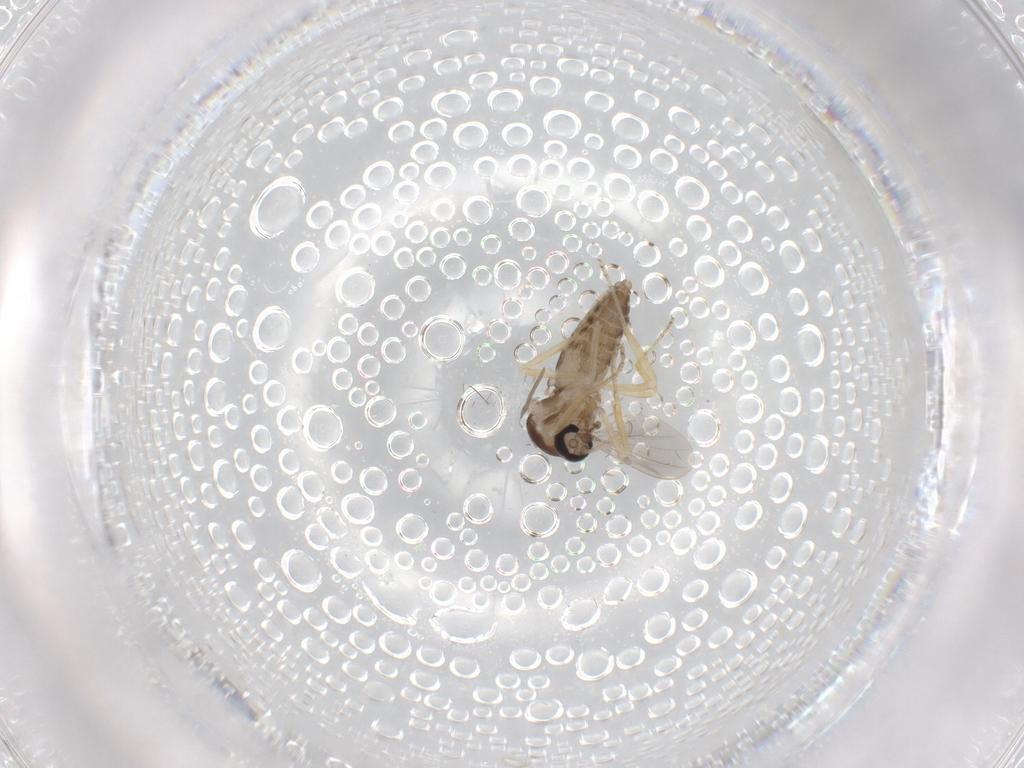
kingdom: Animalia
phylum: Arthropoda
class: Insecta
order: Diptera
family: Ceratopogonidae
